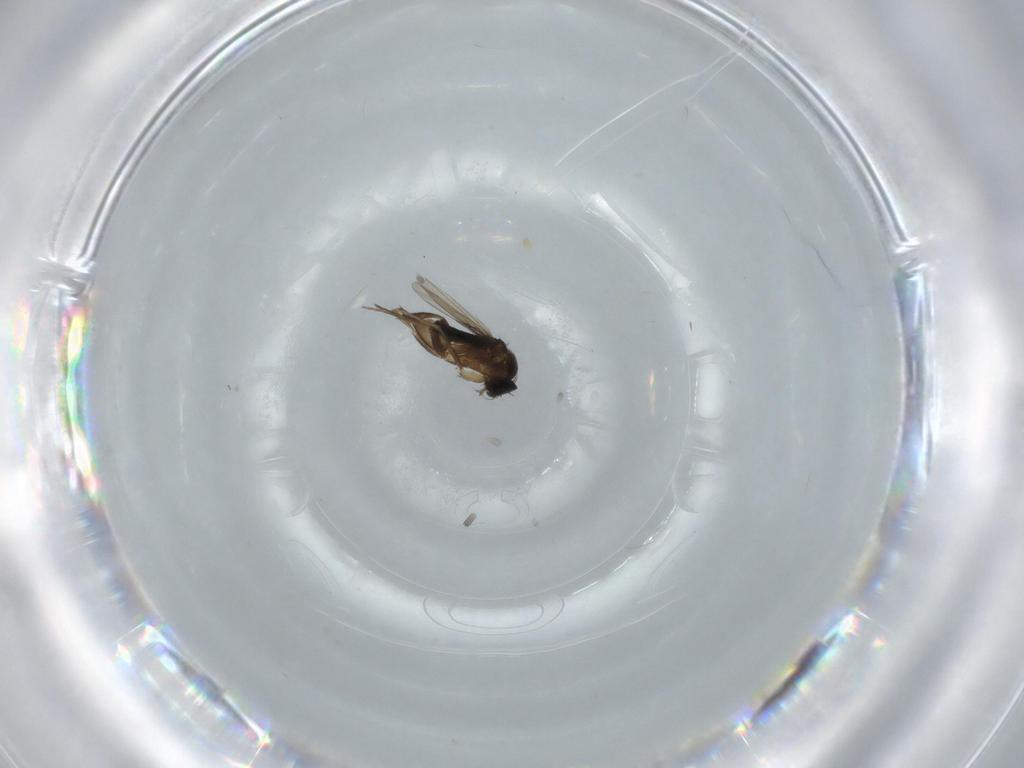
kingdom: Animalia
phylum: Arthropoda
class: Insecta
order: Diptera
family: Phoridae
